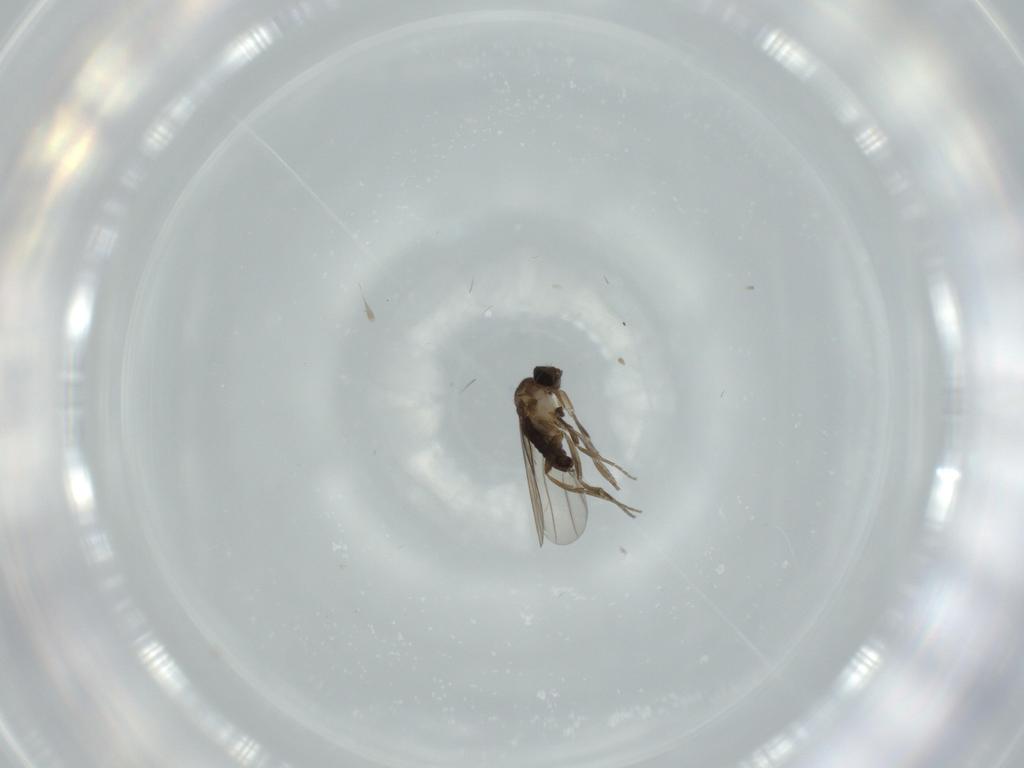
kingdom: Animalia
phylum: Arthropoda
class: Insecta
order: Diptera
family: Phoridae
